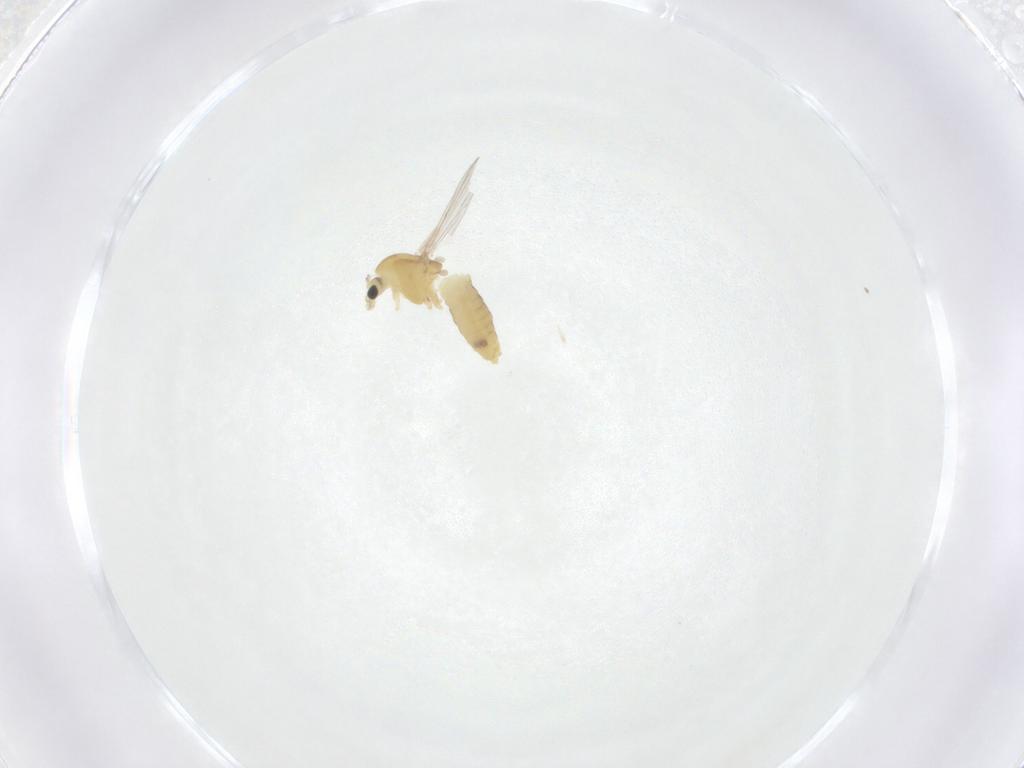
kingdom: Animalia
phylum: Arthropoda
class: Insecta
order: Diptera
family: Chironomidae
